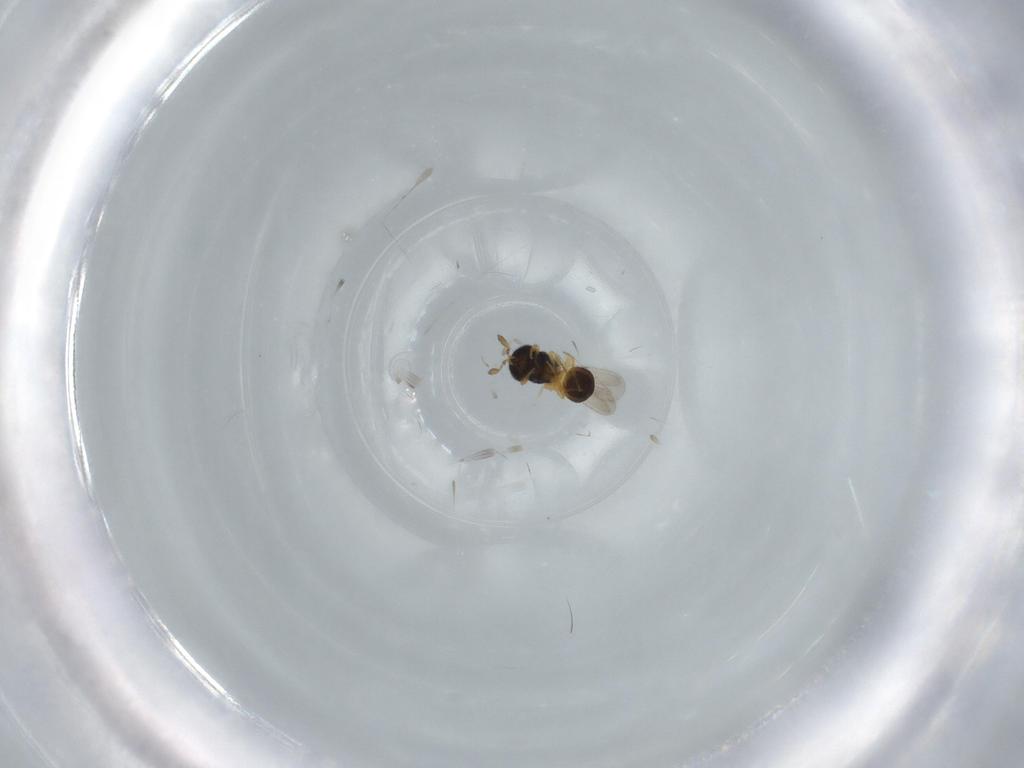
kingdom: Animalia
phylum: Arthropoda
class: Insecta
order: Hymenoptera
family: Scelionidae
